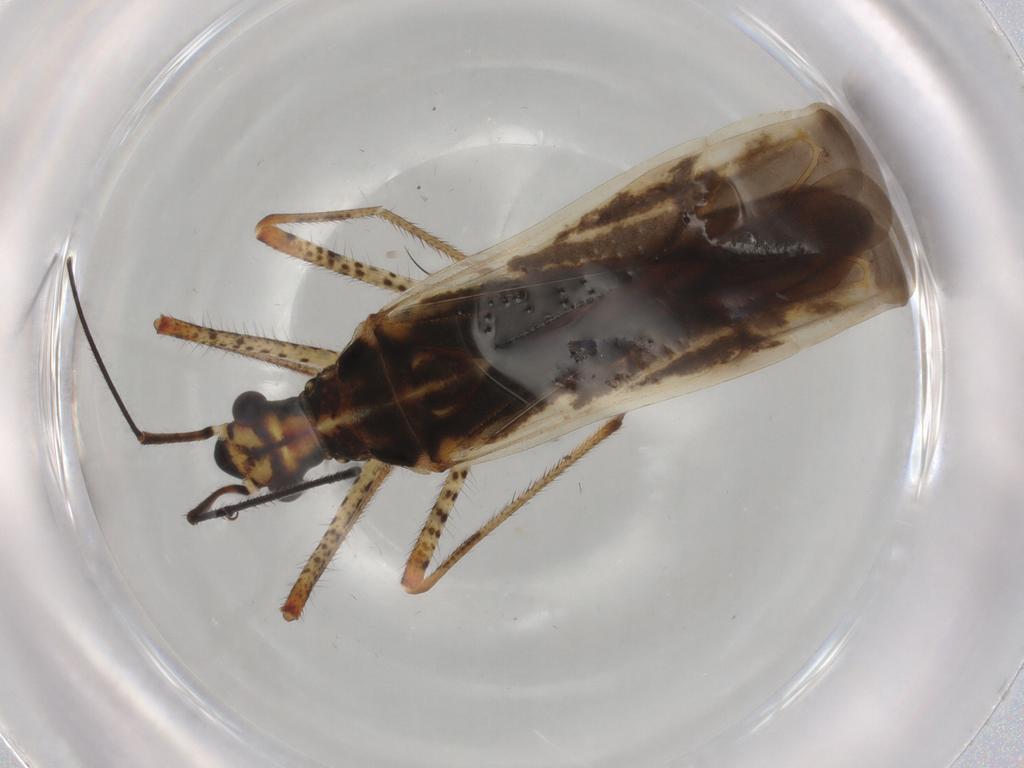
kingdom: Animalia
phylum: Arthropoda
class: Insecta
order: Hemiptera
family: Miridae
